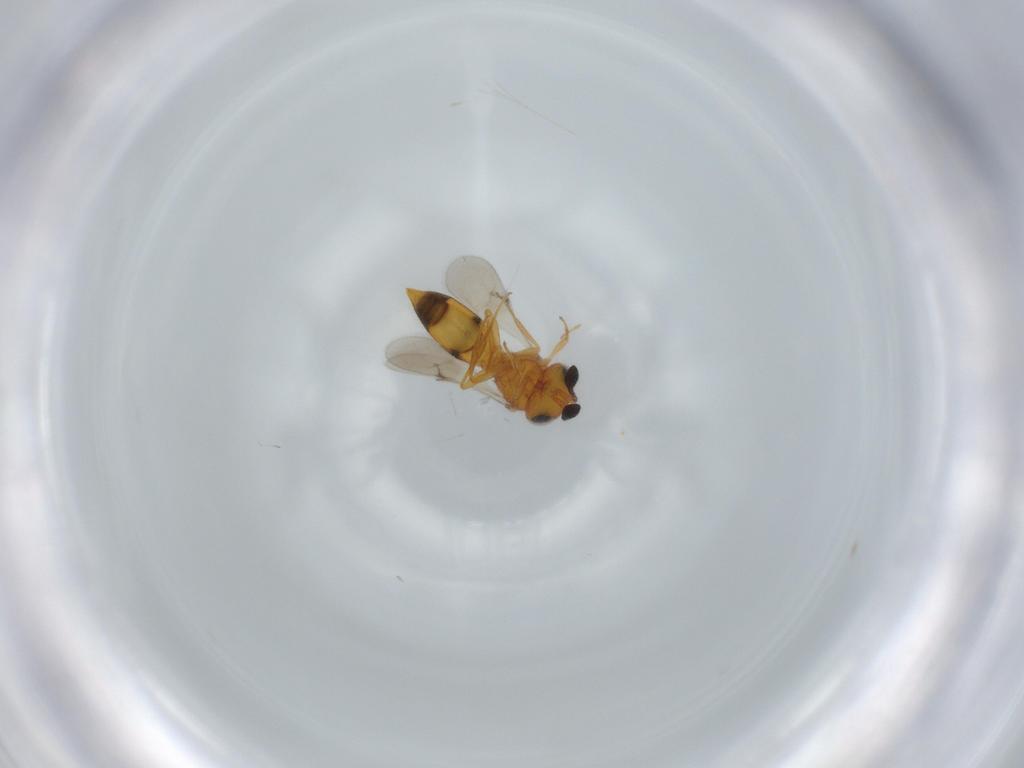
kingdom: Animalia
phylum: Arthropoda
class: Insecta
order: Hymenoptera
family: Scelionidae
